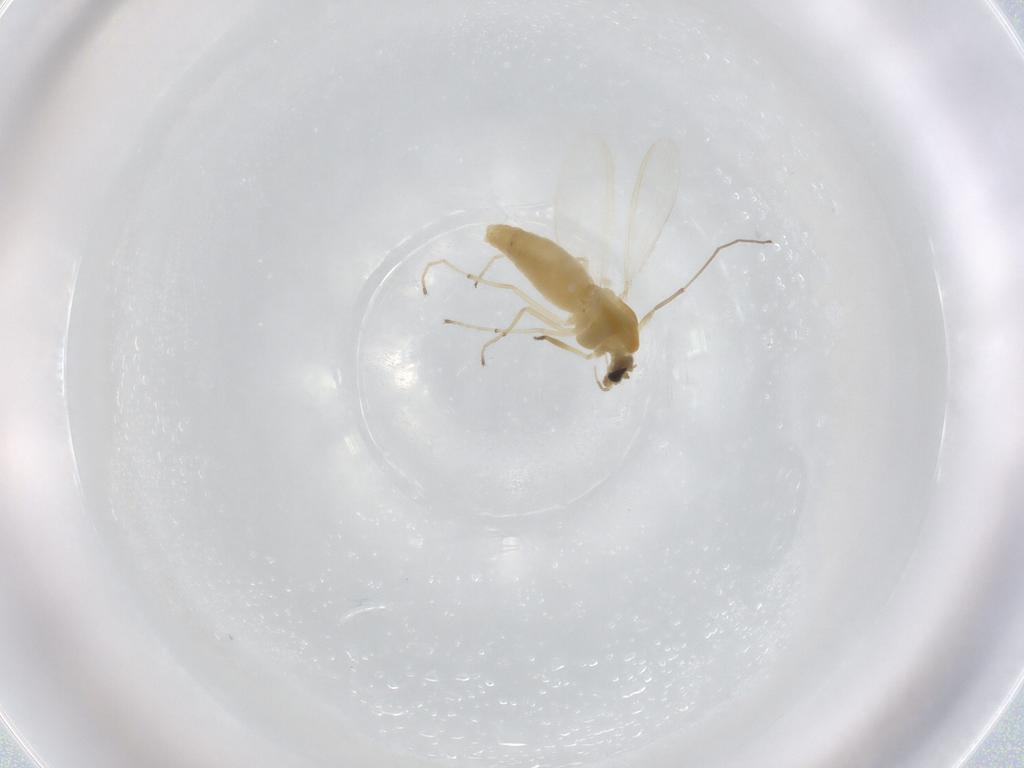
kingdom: Animalia
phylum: Arthropoda
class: Insecta
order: Diptera
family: Chironomidae
